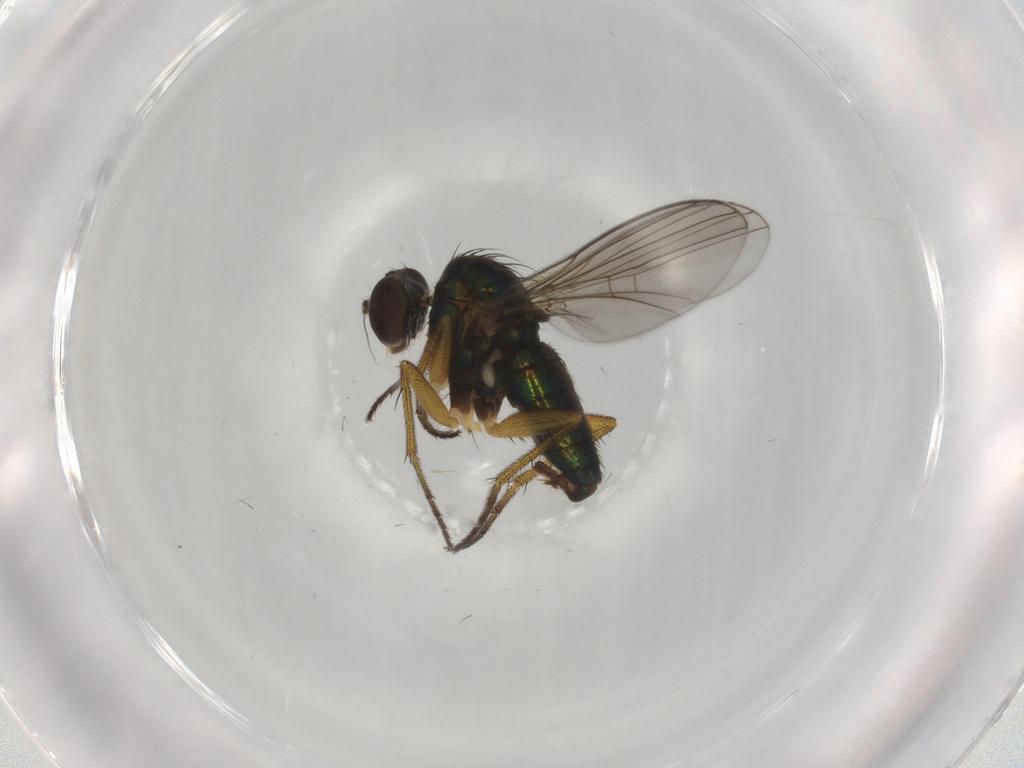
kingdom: Animalia
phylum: Arthropoda
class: Insecta
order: Diptera
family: Dolichopodidae
